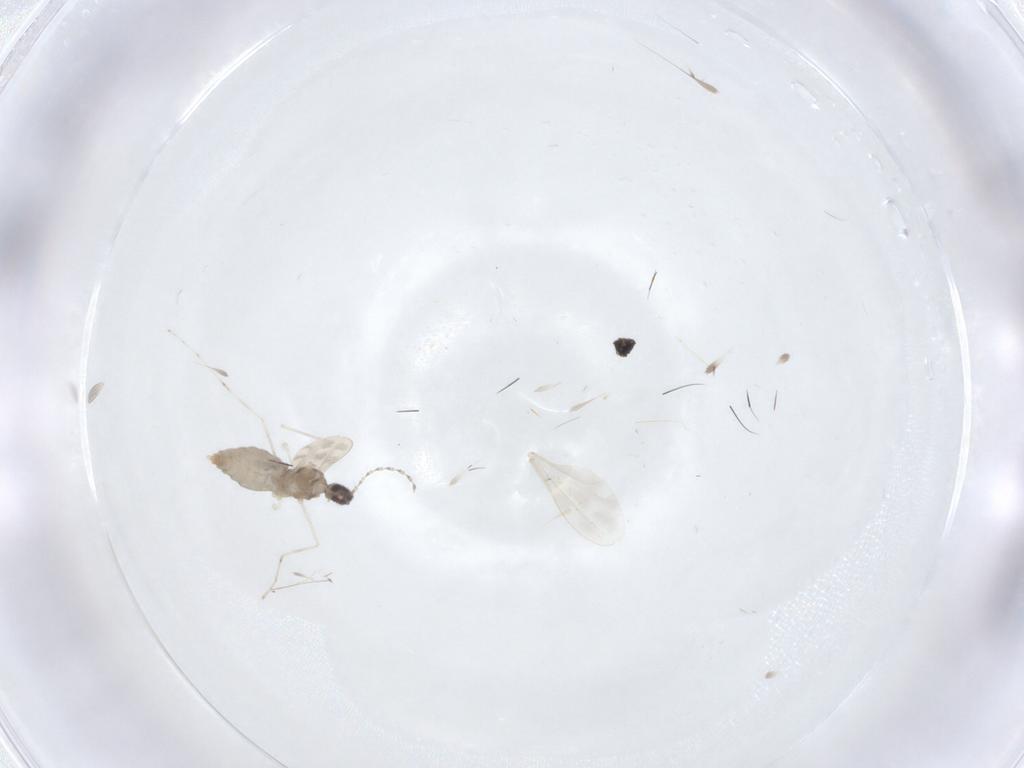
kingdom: Animalia
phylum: Arthropoda
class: Insecta
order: Diptera
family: Cecidomyiidae
